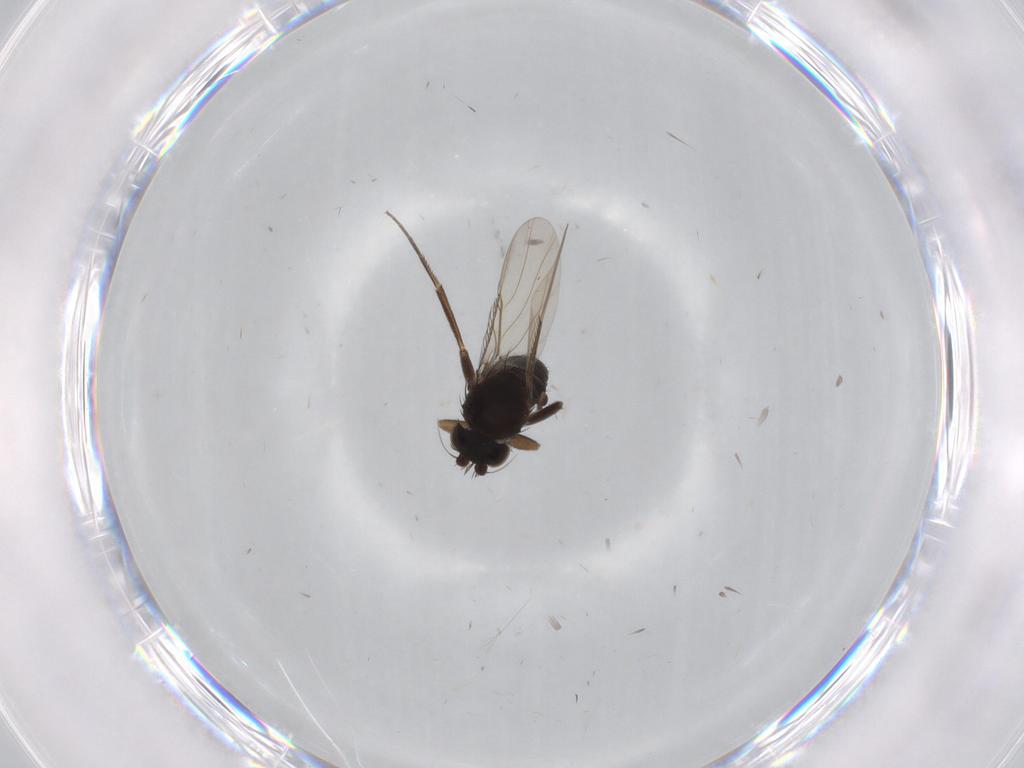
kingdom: Animalia
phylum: Arthropoda
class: Insecta
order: Diptera
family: Phoridae
